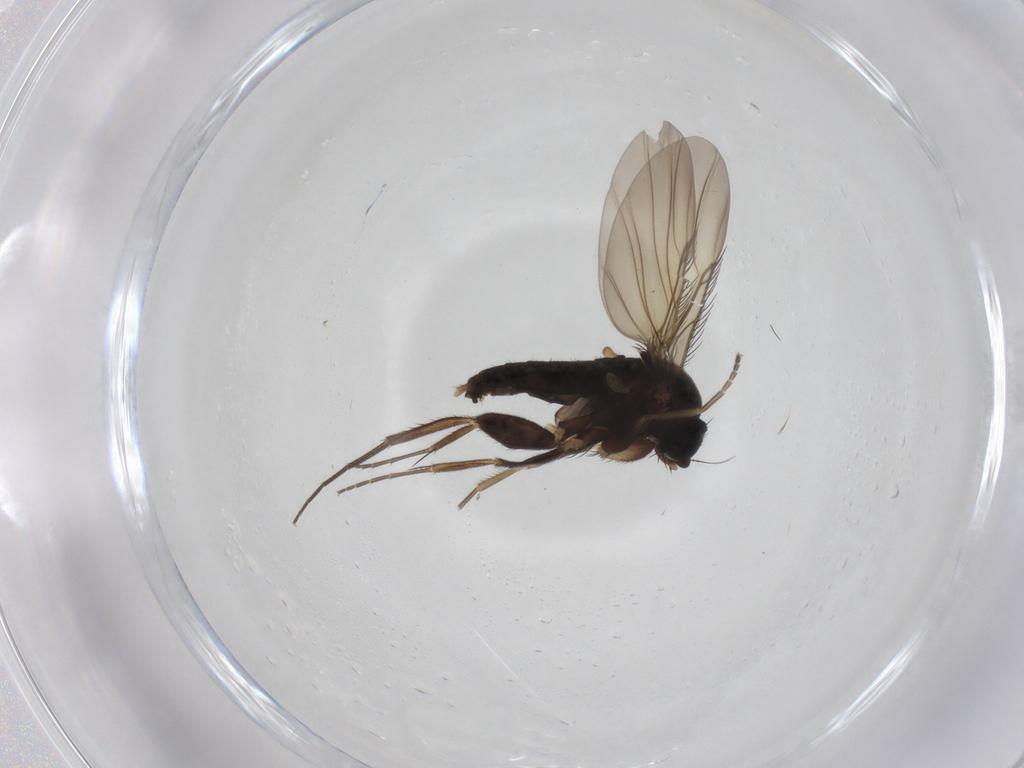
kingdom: Animalia
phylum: Arthropoda
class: Insecta
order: Diptera
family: Phoridae
